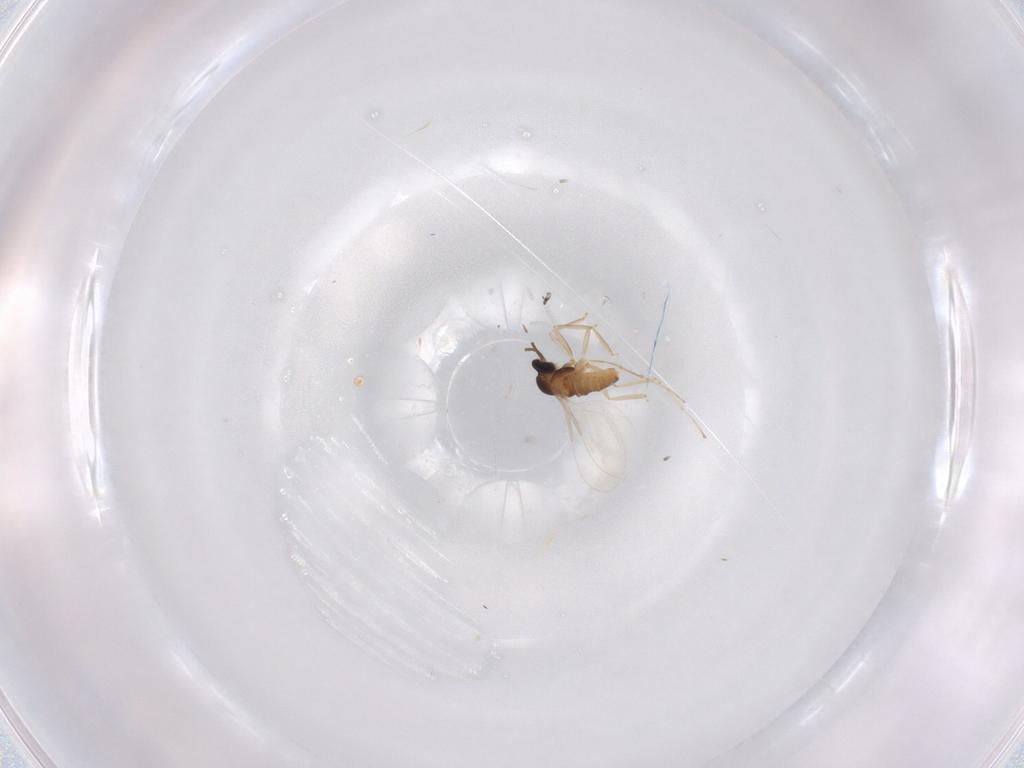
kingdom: Animalia
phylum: Arthropoda
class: Insecta
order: Diptera
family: Cecidomyiidae
